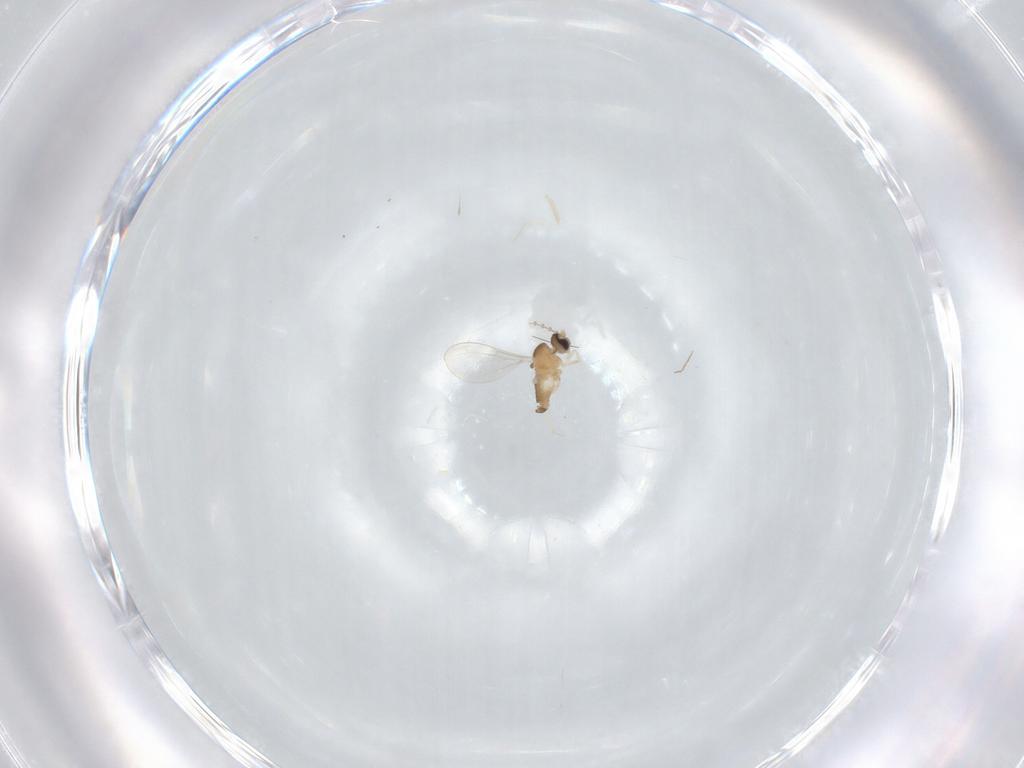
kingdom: Animalia
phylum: Arthropoda
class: Insecta
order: Diptera
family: Cecidomyiidae
